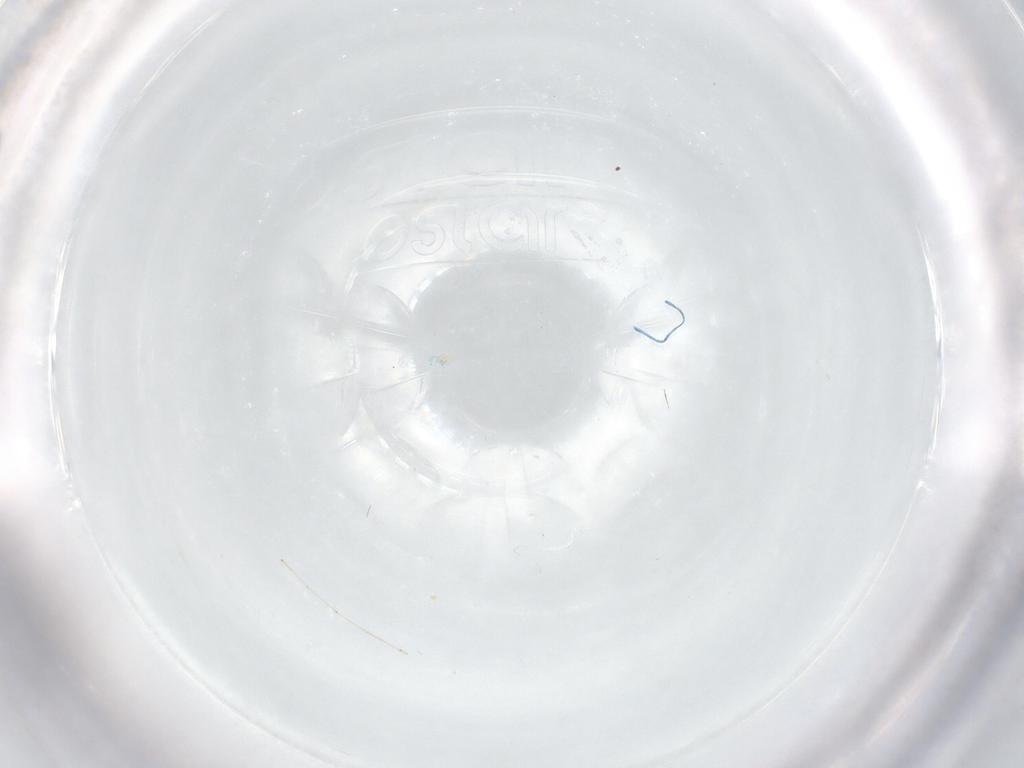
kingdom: Animalia
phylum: Arthropoda
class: Insecta
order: Diptera
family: Cecidomyiidae
